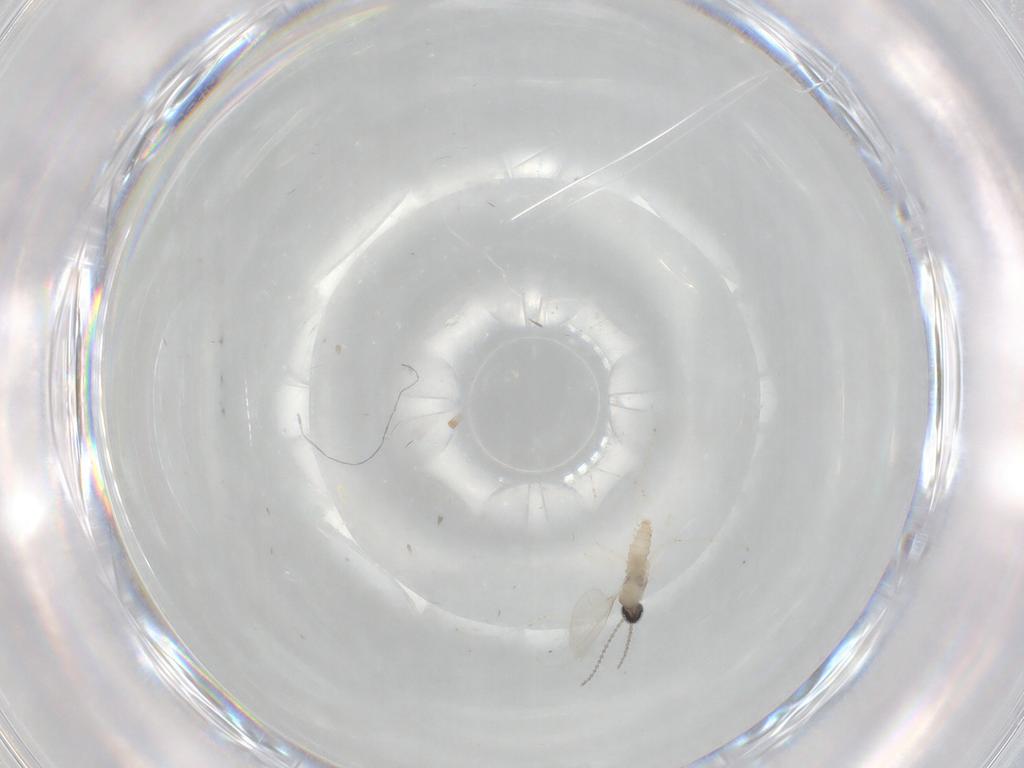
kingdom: Animalia
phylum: Arthropoda
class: Insecta
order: Diptera
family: Cecidomyiidae
